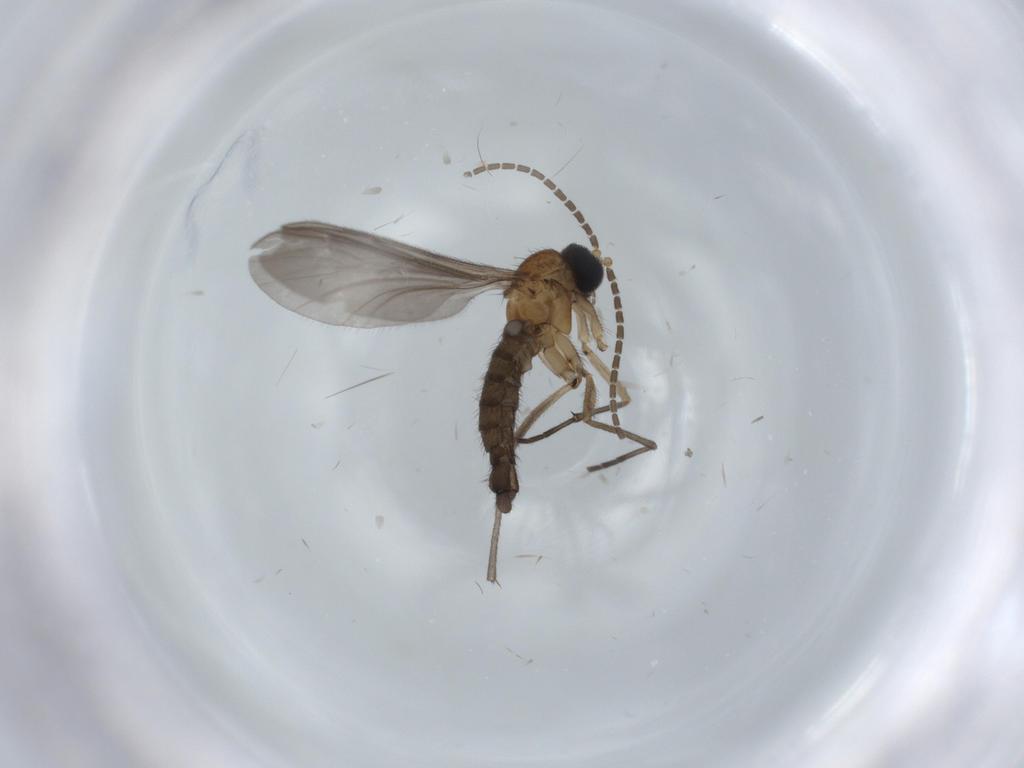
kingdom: Animalia
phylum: Arthropoda
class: Insecta
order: Diptera
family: Sciaridae
